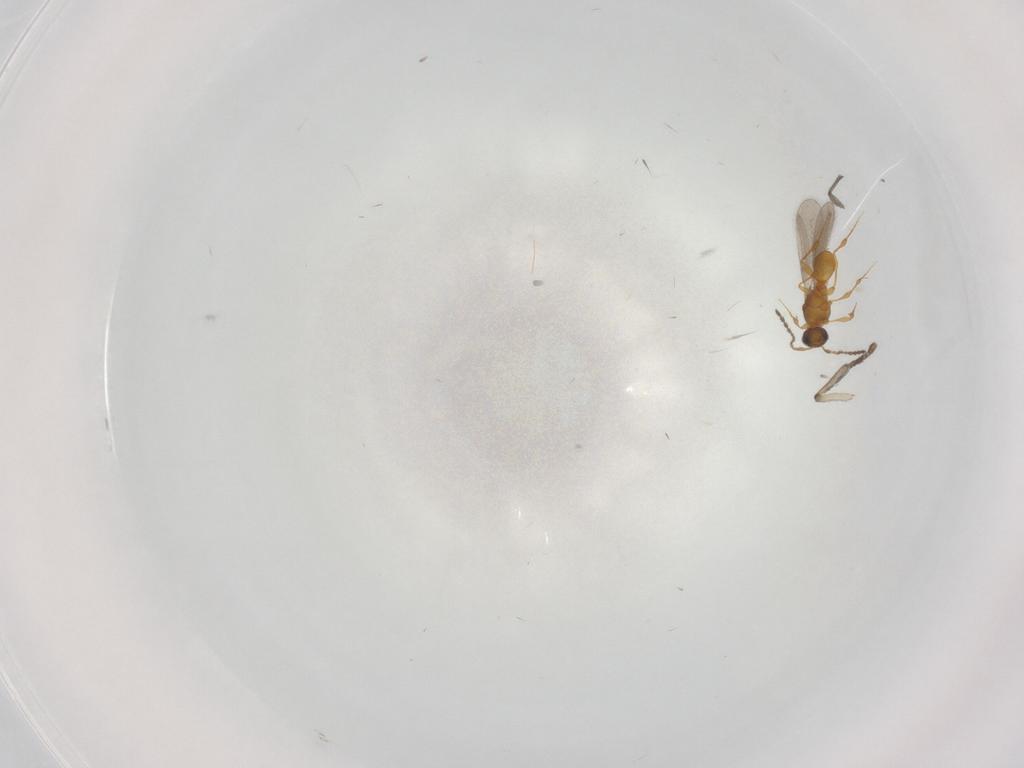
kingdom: Animalia
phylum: Arthropoda
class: Insecta
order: Hymenoptera
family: Platygastridae
